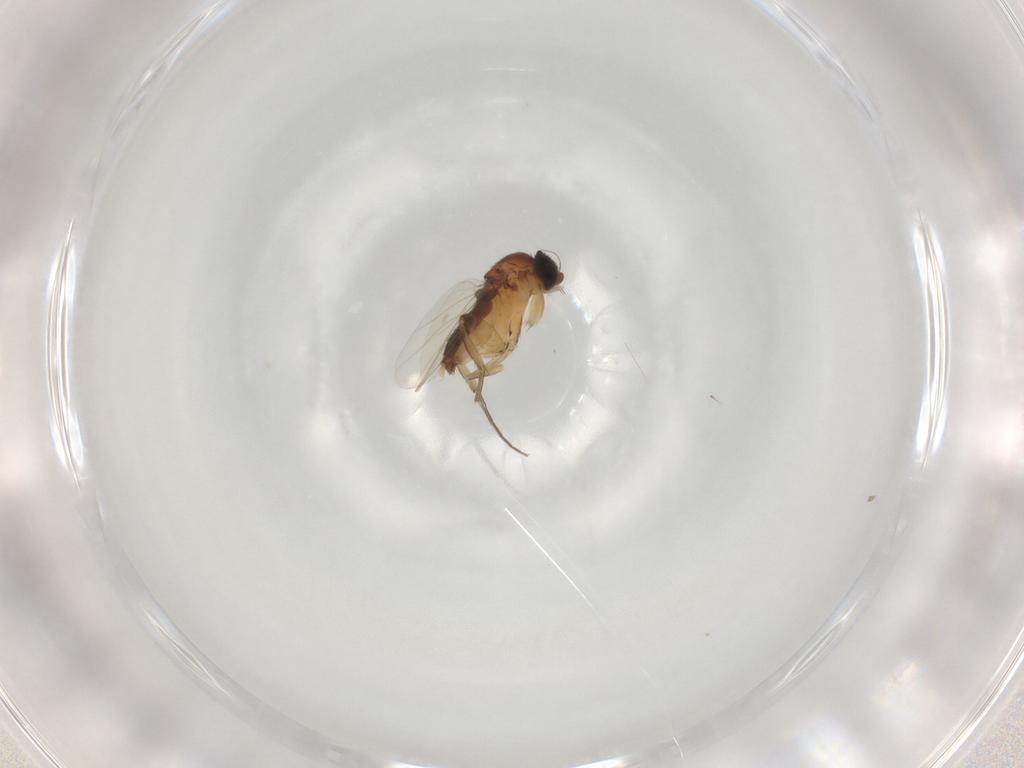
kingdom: Animalia
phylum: Arthropoda
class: Insecta
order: Diptera
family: Phoridae
